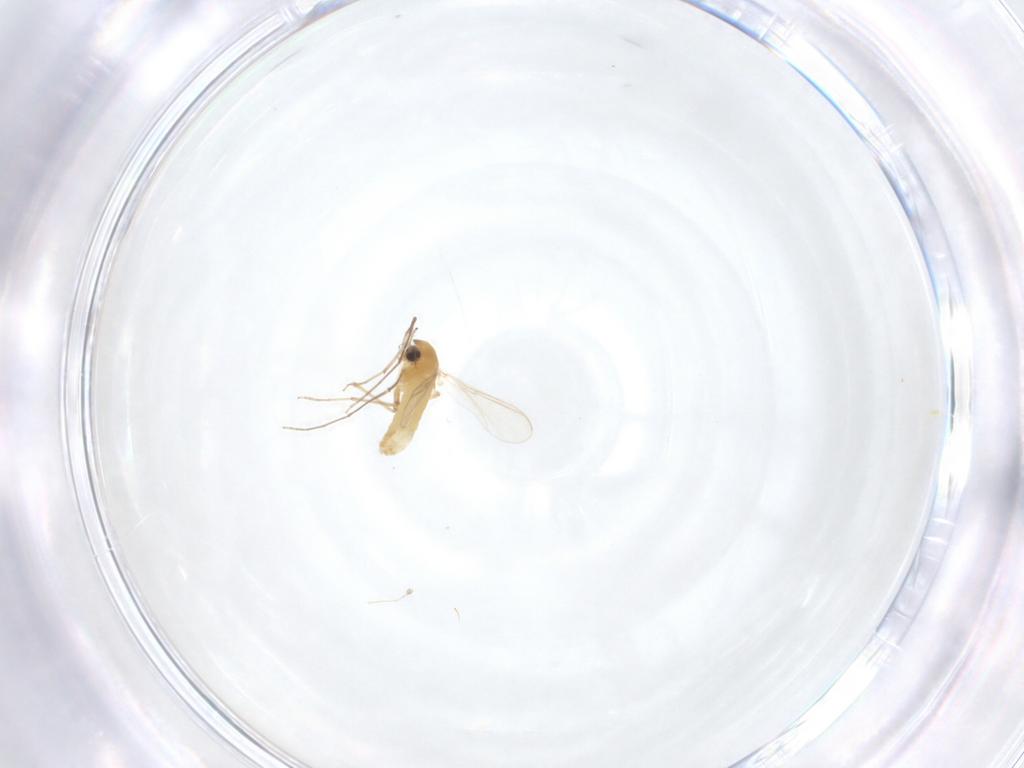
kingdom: Animalia
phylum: Arthropoda
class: Insecta
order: Diptera
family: Chironomidae
